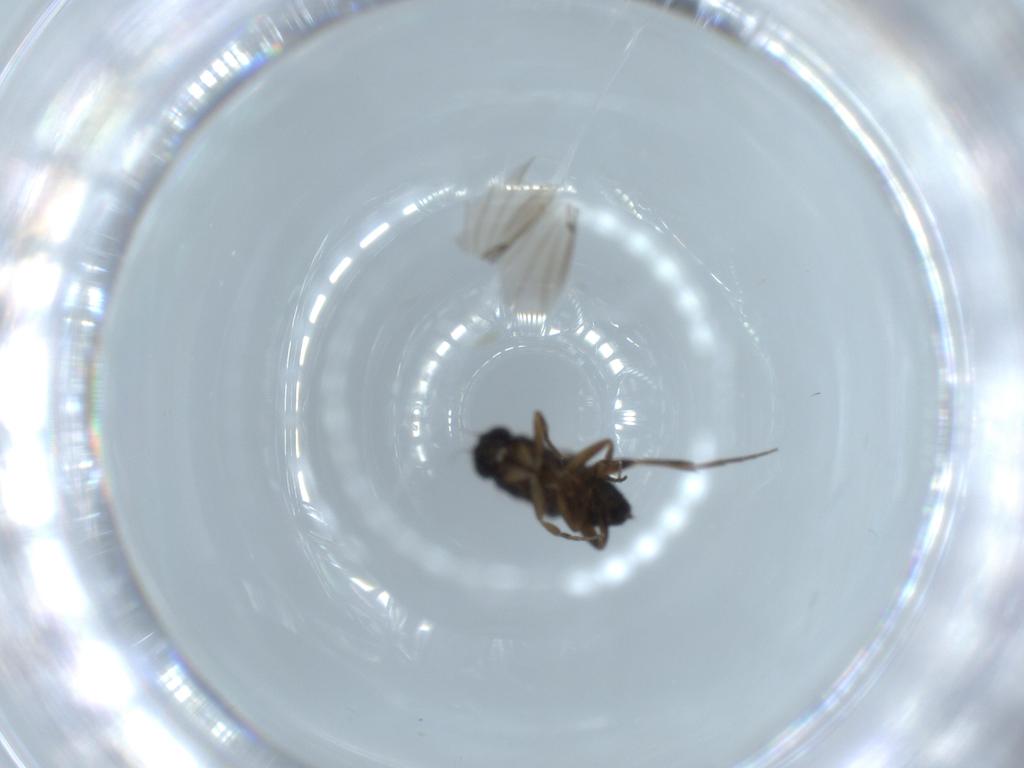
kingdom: Animalia
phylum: Arthropoda
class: Insecta
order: Diptera
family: Phoridae
